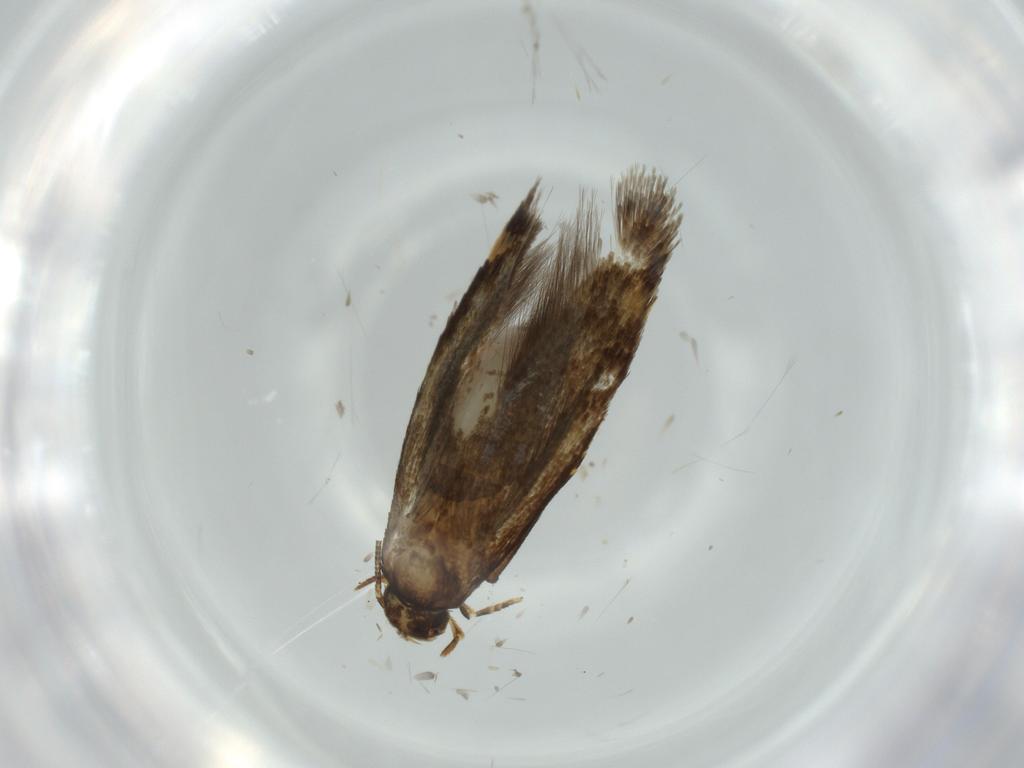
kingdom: Animalia
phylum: Arthropoda
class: Insecta
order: Lepidoptera
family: Tineidae
